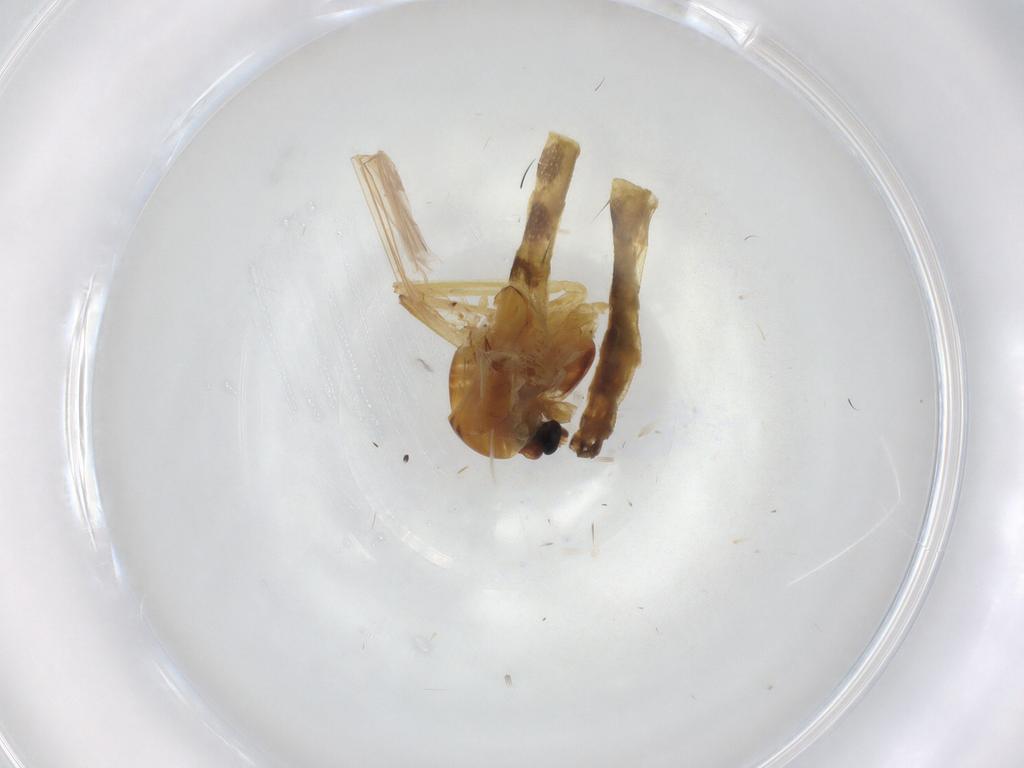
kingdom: Animalia
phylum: Arthropoda
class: Insecta
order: Diptera
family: Chironomidae
